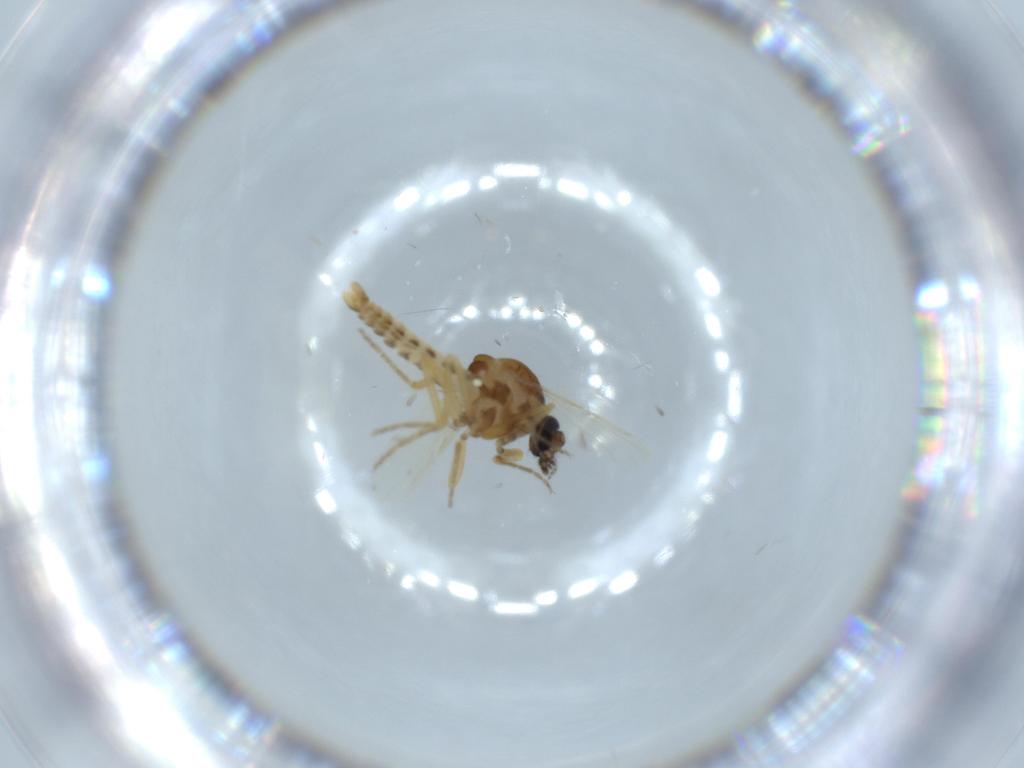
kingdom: Animalia
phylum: Arthropoda
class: Insecta
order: Diptera
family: Ceratopogonidae
